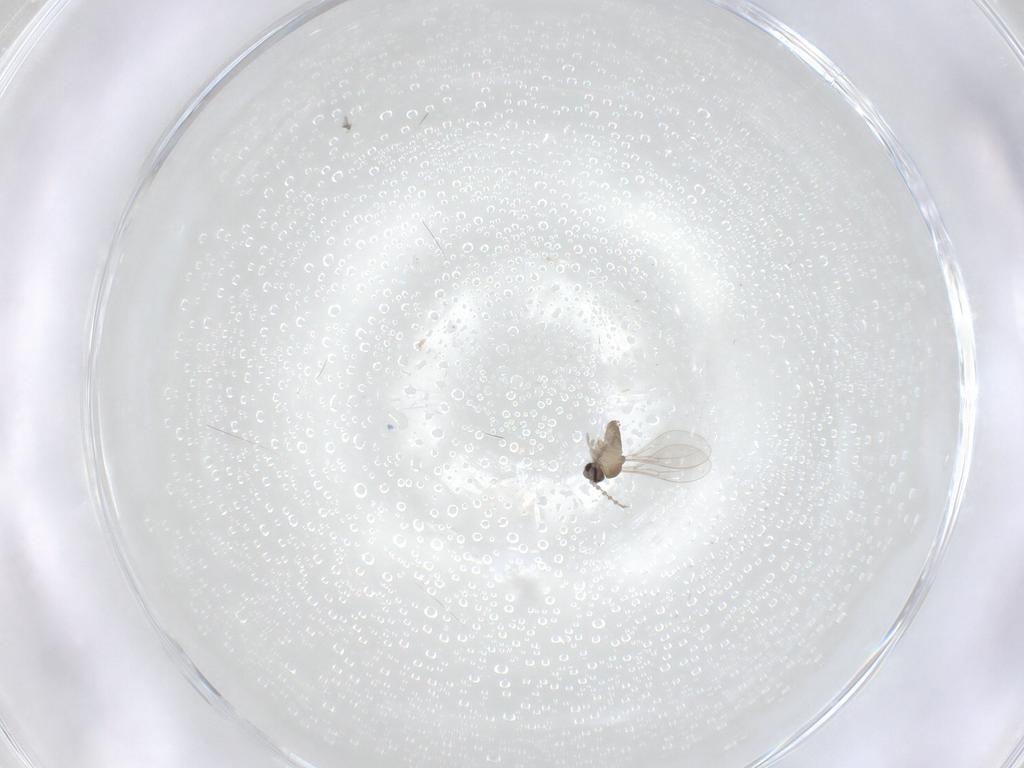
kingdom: Animalia
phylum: Arthropoda
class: Insecta
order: Diptera
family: Cecidomyiidae
